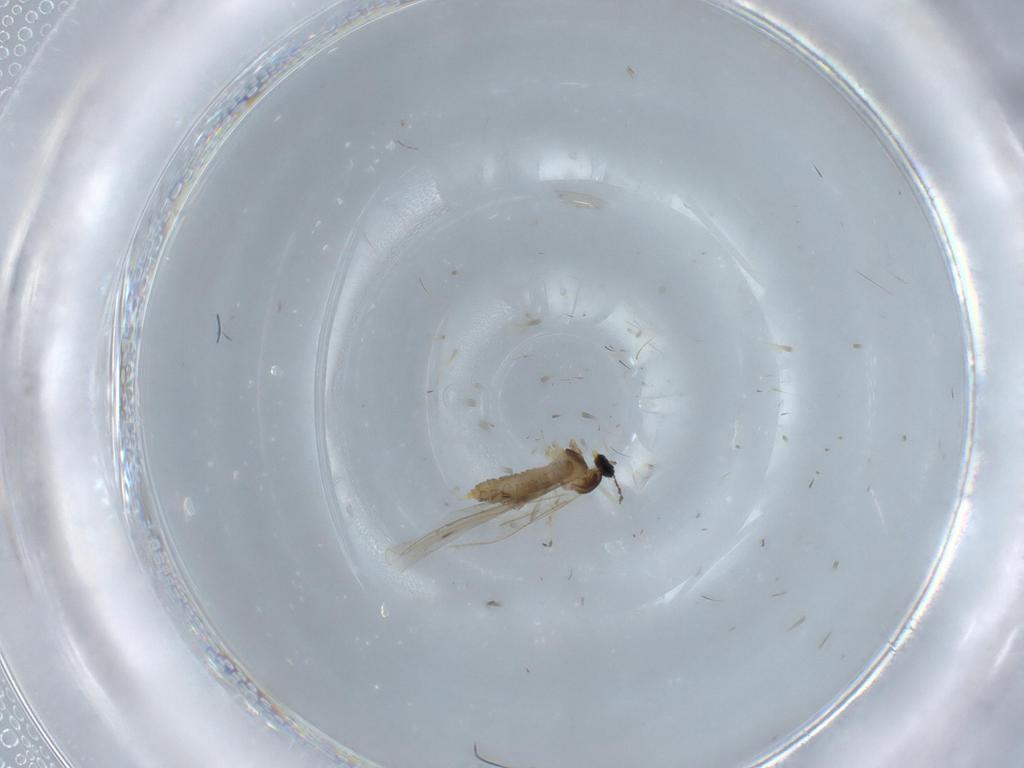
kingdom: Animalia
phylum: Arthropoda
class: Insecta
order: Diptera
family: Cecidomyiidae
